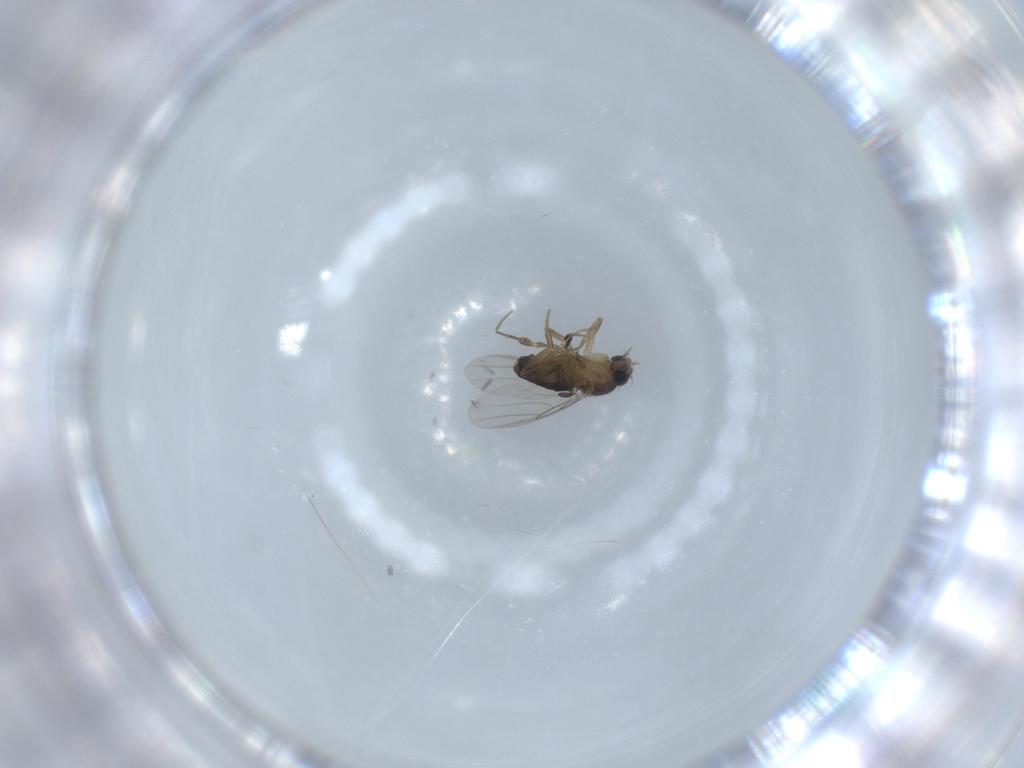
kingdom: Animalia
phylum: Arthropoda
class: Insecta
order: Diptera
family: Phoridae
